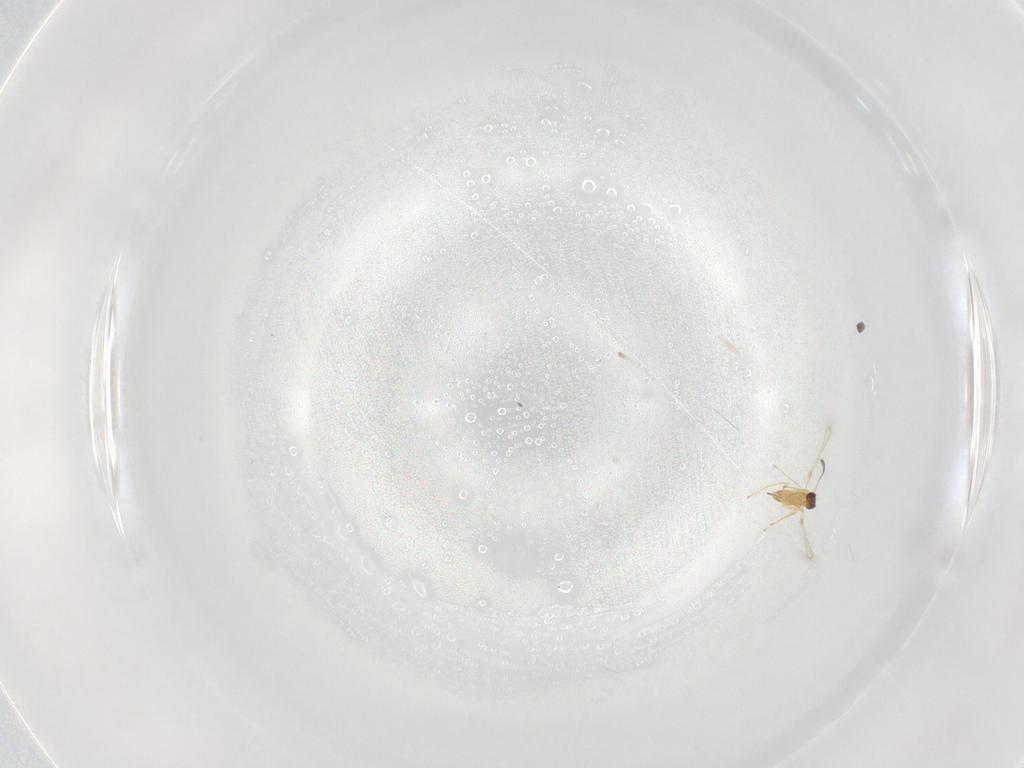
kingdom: Animalia
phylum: Arthropoda
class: Insecta
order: Hymenoptera
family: Mymaridae
